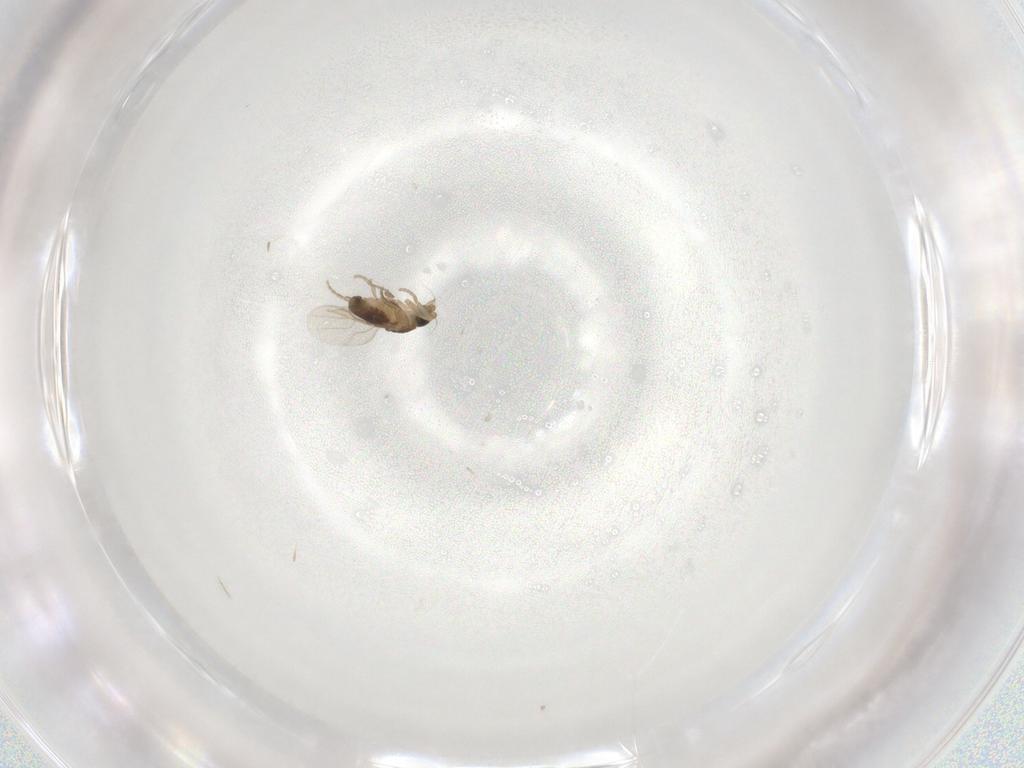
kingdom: Animalia
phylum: Arthropoda
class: Insecta
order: Diptera
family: Phoridae
